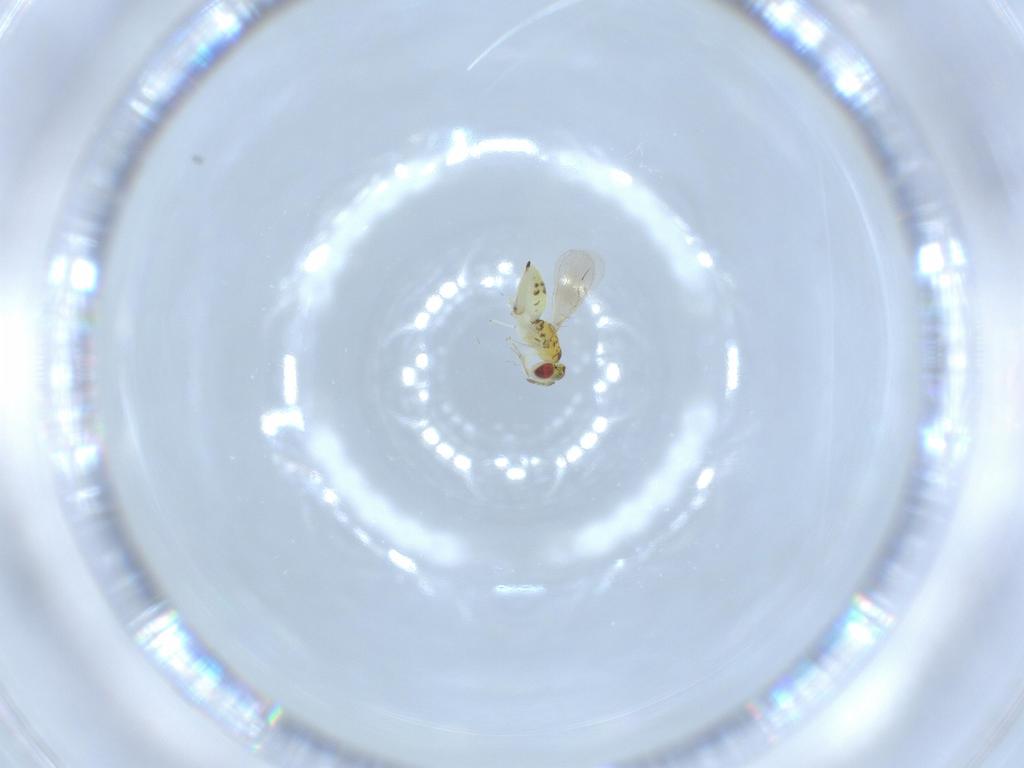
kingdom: Animalia
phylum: Arthropoda
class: Insecta
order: Hymenoptera
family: Eulophidae
